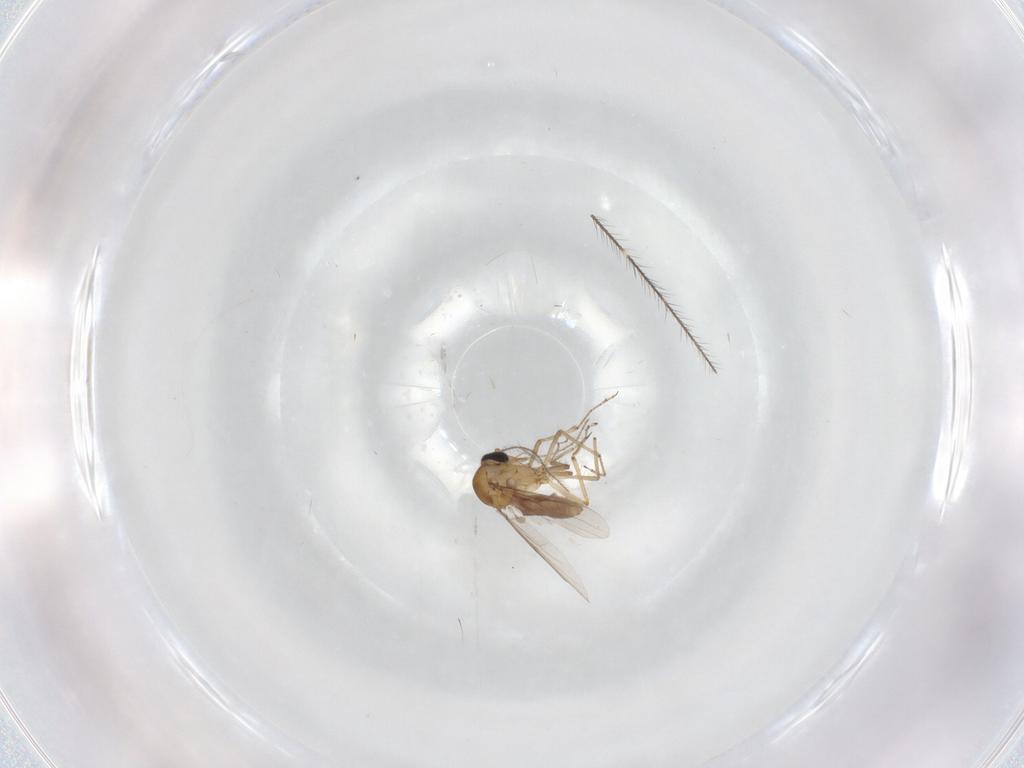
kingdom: Animalia
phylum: Arthropoda
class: Insecta
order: Diptera
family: Ceratopogonidae
